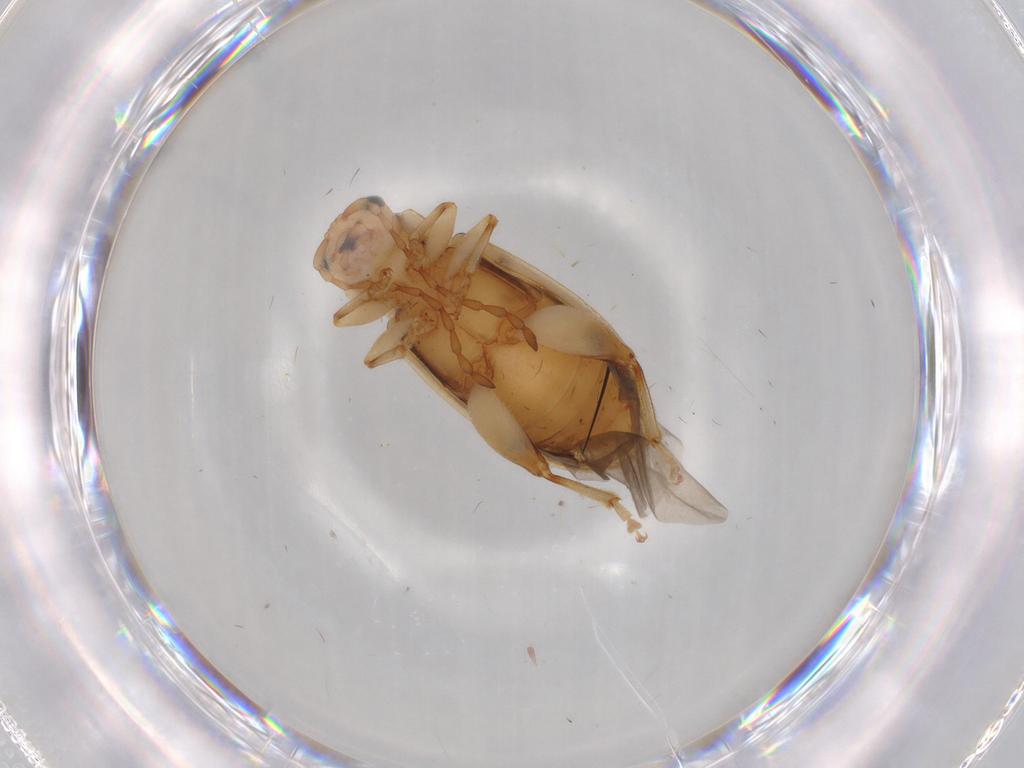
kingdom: Animalia
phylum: Arthropoda
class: Insecta
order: Coleoptera
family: Chrysomelidae
